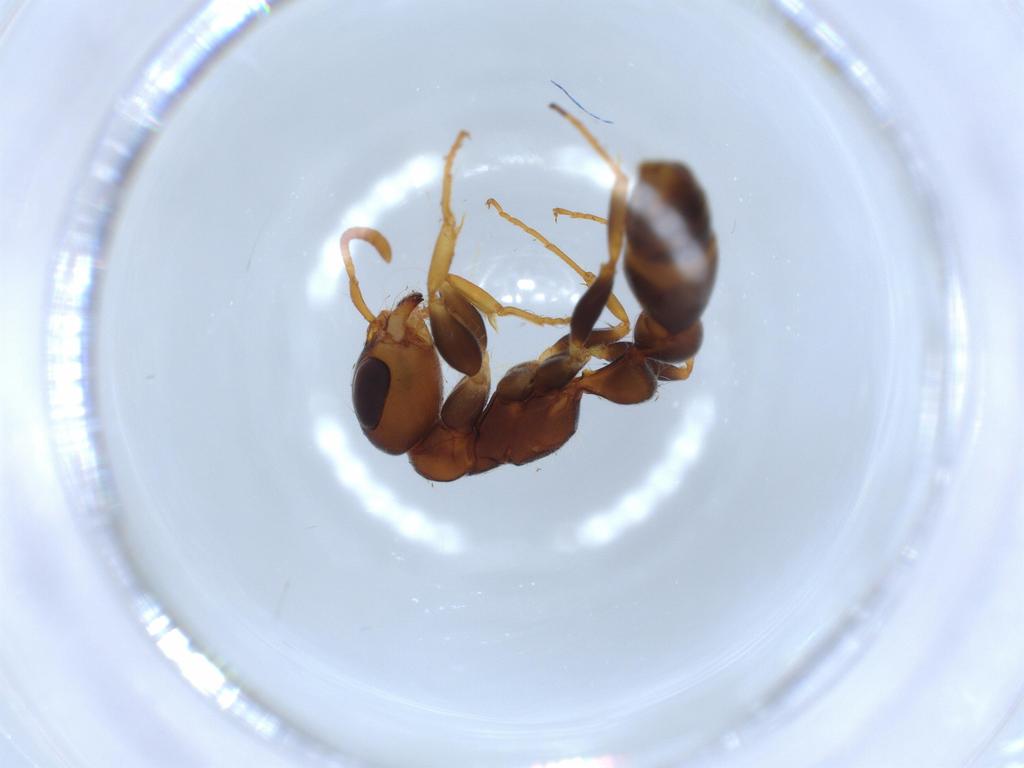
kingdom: Animalia
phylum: Arthropoda
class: Insecta
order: Hymenoptera
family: Formicidae
